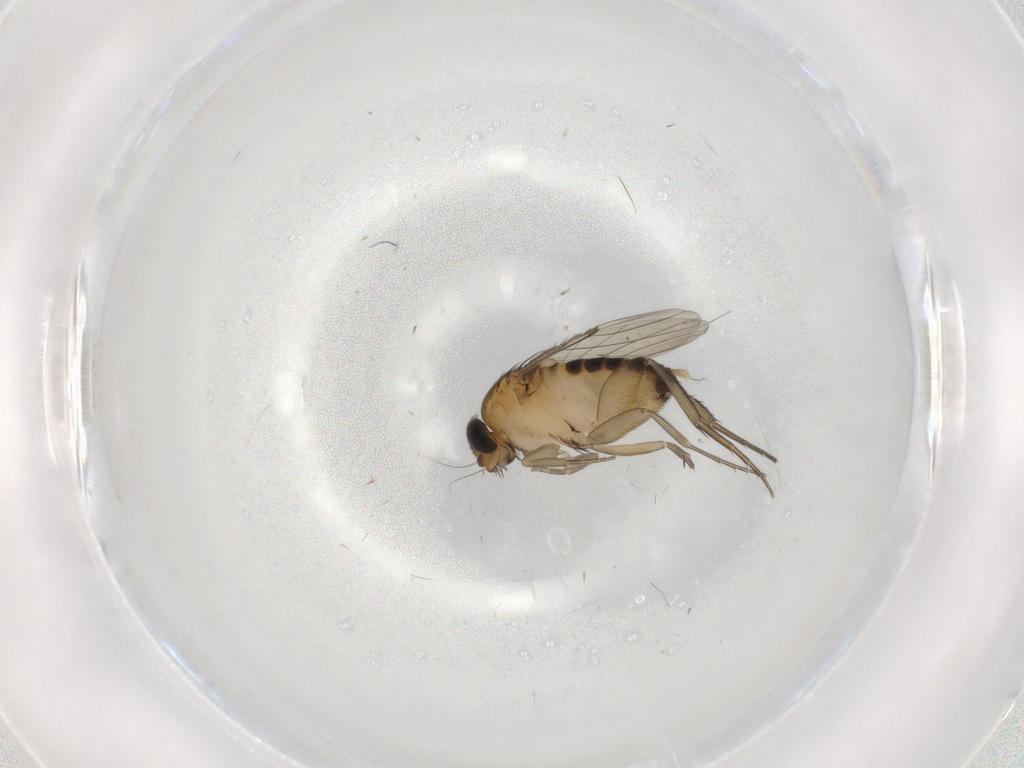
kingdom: Animalia
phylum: Arthropoda
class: Insecta
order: Diptera
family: Phoridae
